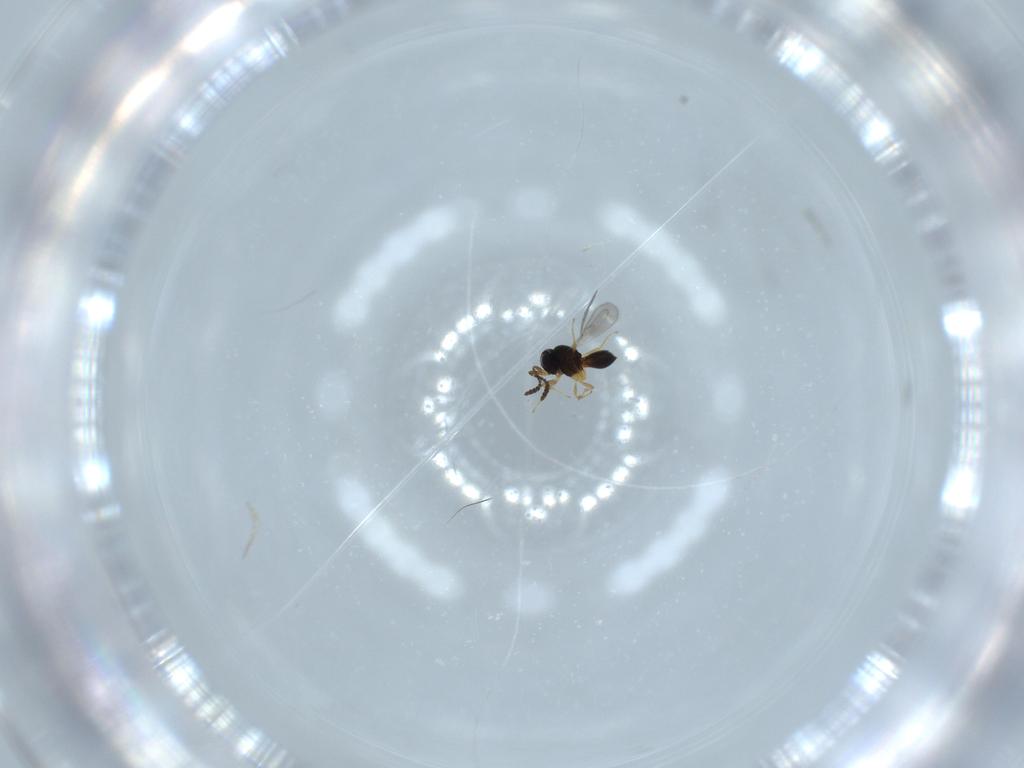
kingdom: Animalia
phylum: Arthropoda
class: Insecta
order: Hymenoptera
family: Scelionidae
